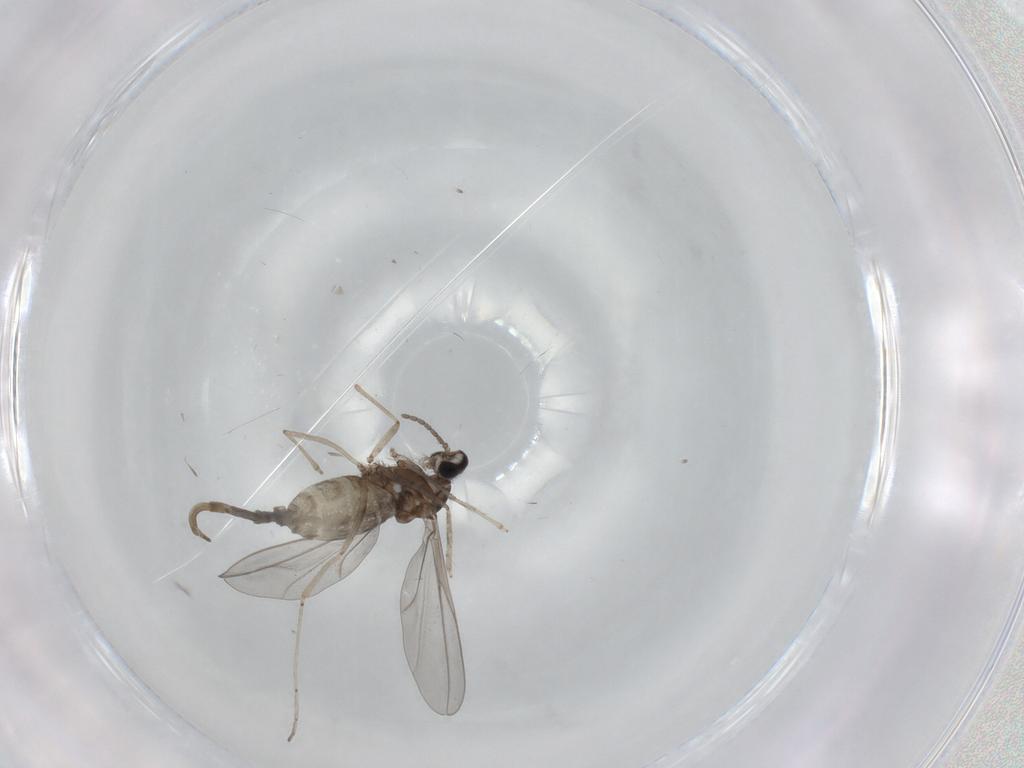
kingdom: Animalia
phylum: Arthropoda
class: Insecta
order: Diptera
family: Cecidomyiidae
